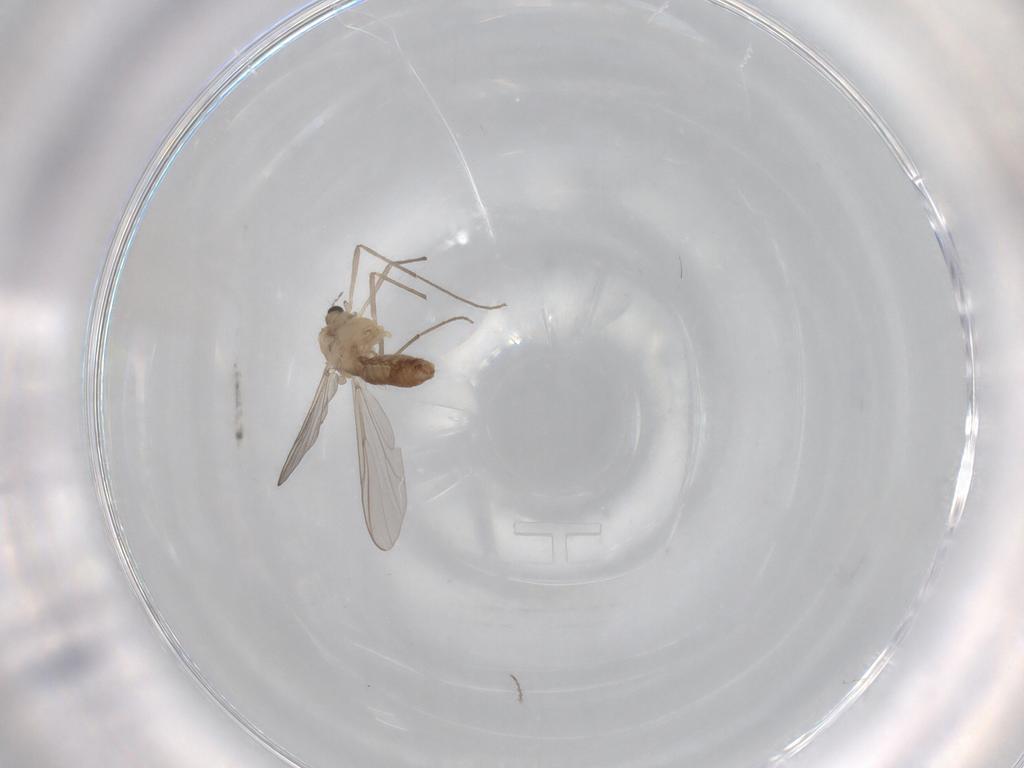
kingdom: Animalia
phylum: Arthropoda
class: Insecta
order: Diptera
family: Chironomidae
